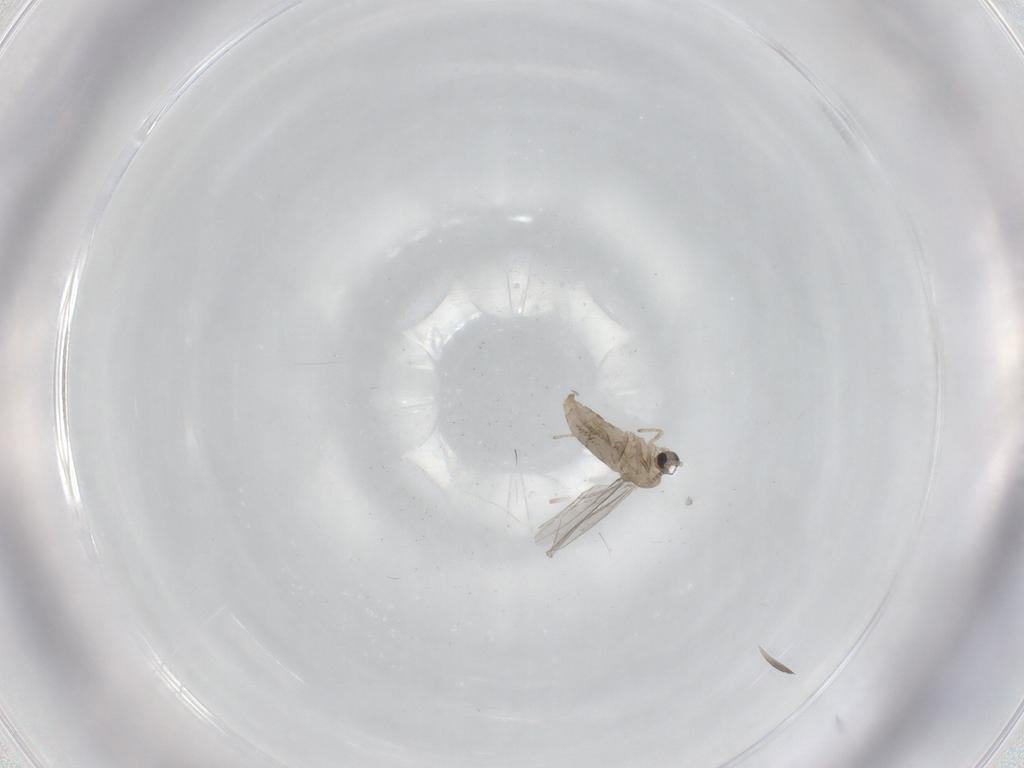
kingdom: Animalia
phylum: Arthropoda
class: Insecta
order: Diptera
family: Cecidomyiidae
